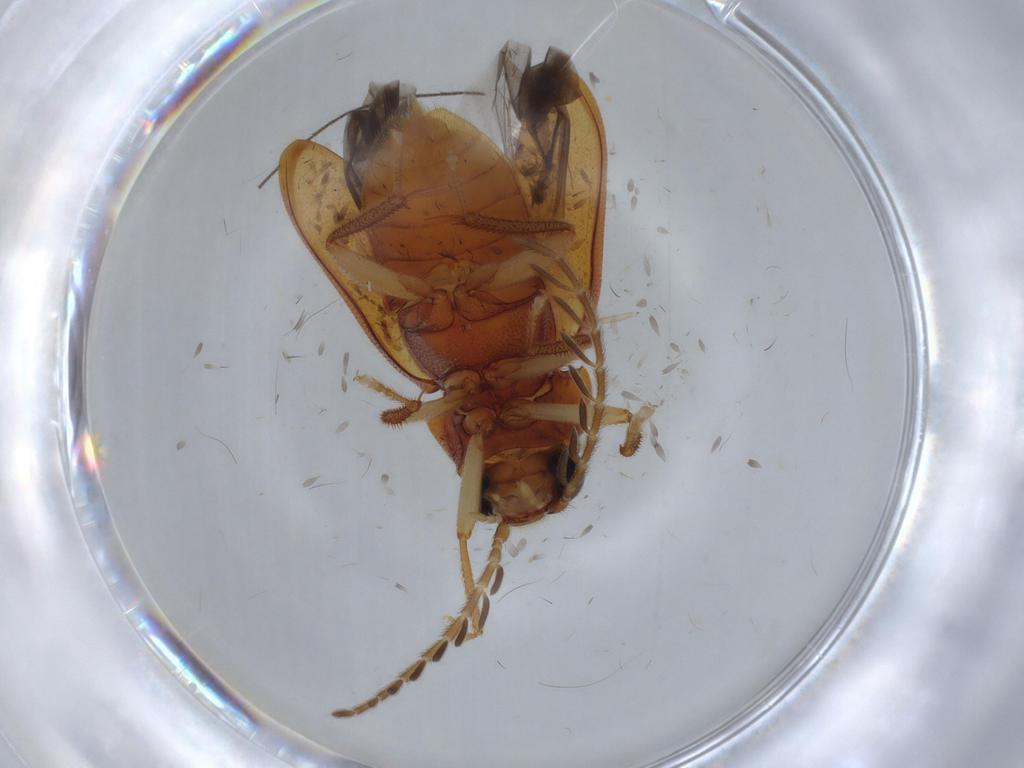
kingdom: Animalia
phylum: Arthropoda
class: Insecta
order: Coleoptera
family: Ptilodactylidae
